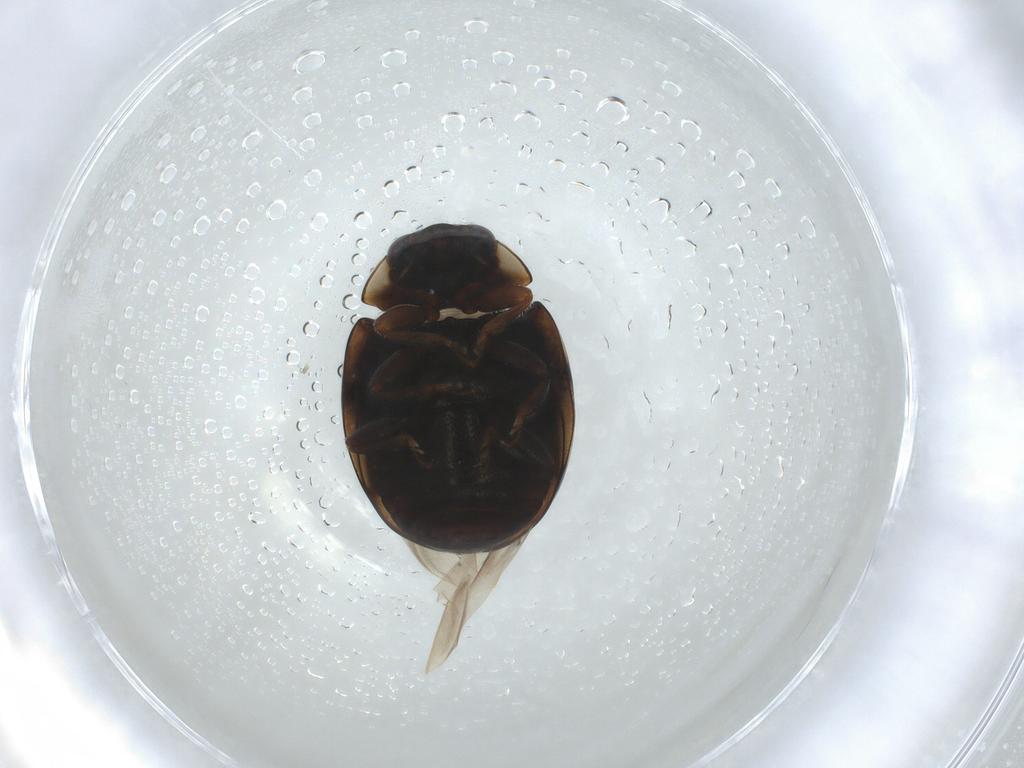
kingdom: Animalia
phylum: Arthropoda
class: Insecta
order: Coleoptera
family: Coccinellidae
